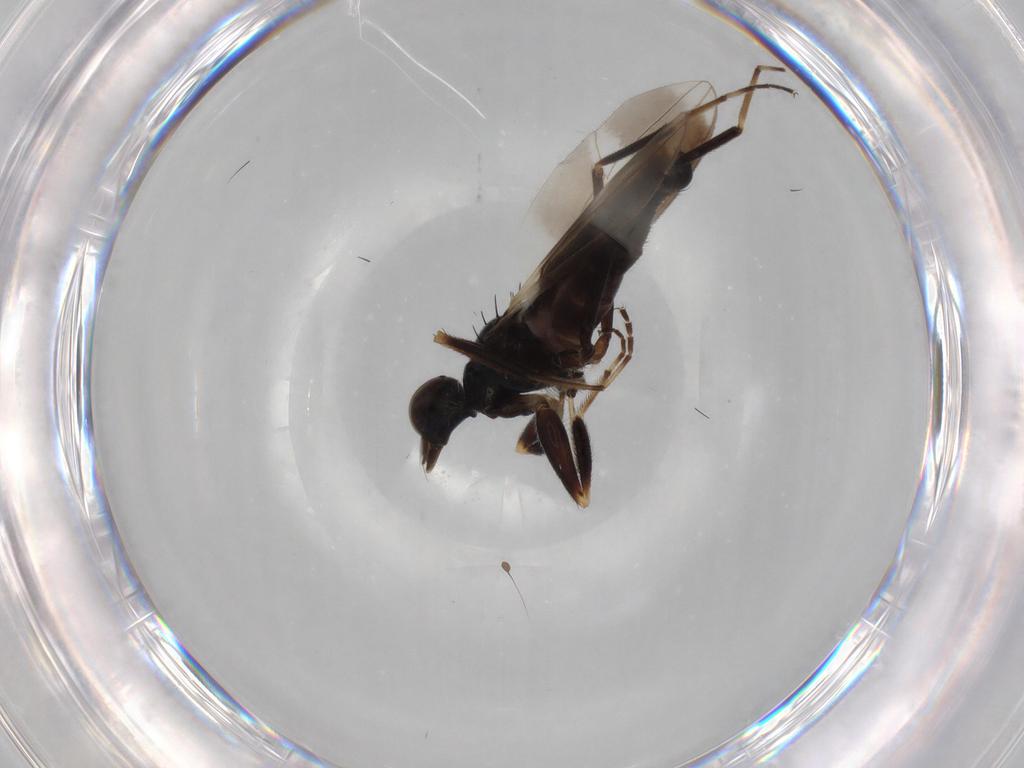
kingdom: Animalia
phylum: Arthropoda
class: Insecta
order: Diptera
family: Hybotidae
